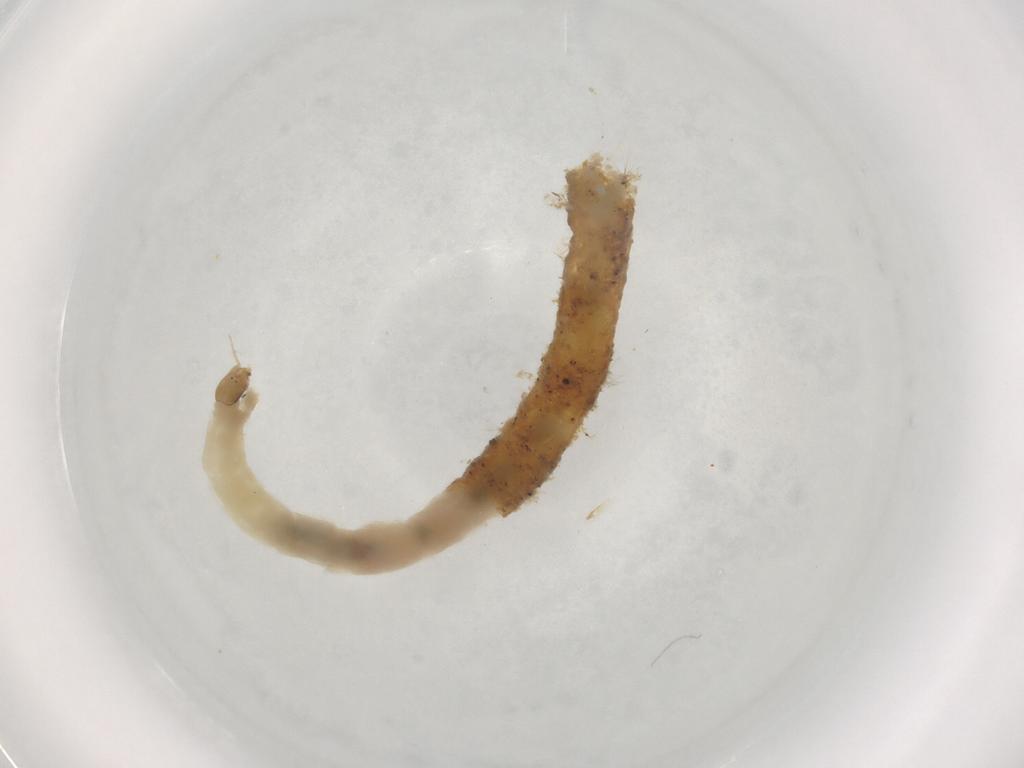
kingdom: Animalia
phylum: Arthropoda
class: Insecta
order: Diptera
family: Chironomidae
